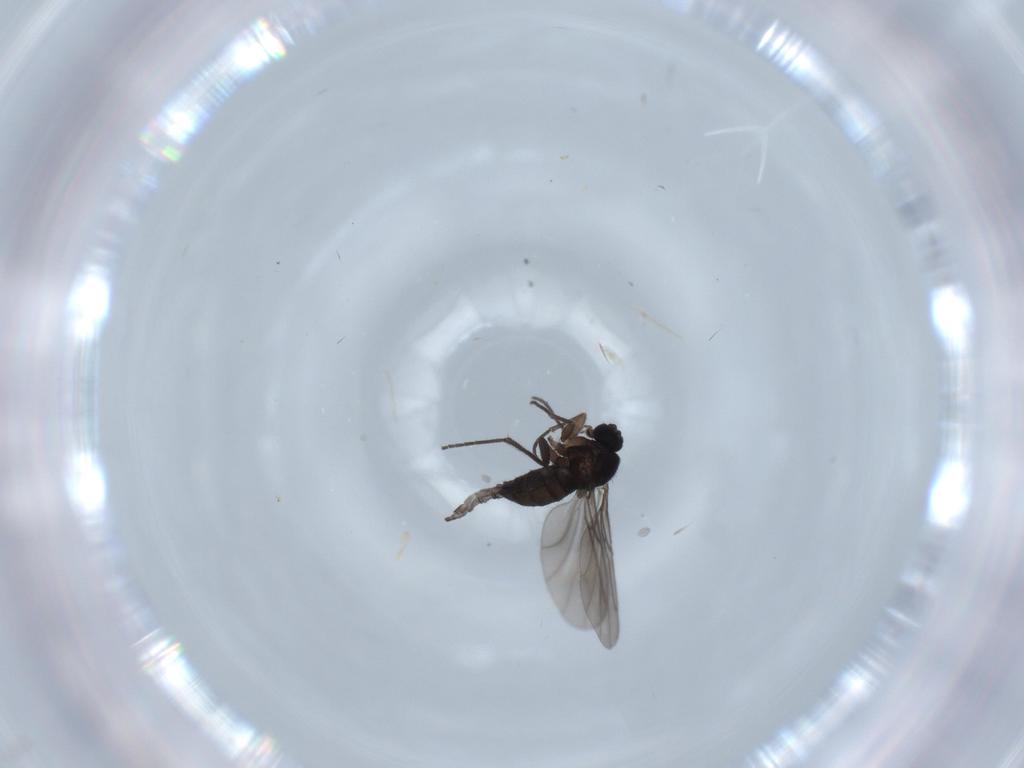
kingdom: Animalia
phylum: Arthropoda
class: Insecta
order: Diptera
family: Sciaridae
